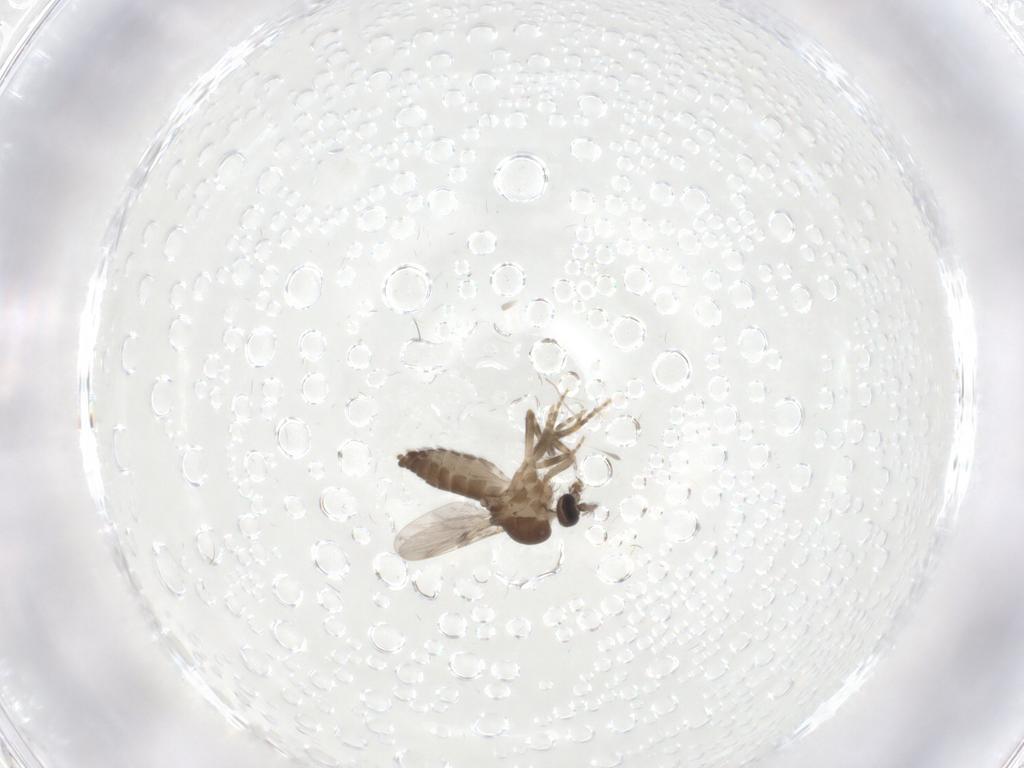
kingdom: Animalia
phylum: Arthropoda
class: Insecta
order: Diptera
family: Ceratopogonidae
